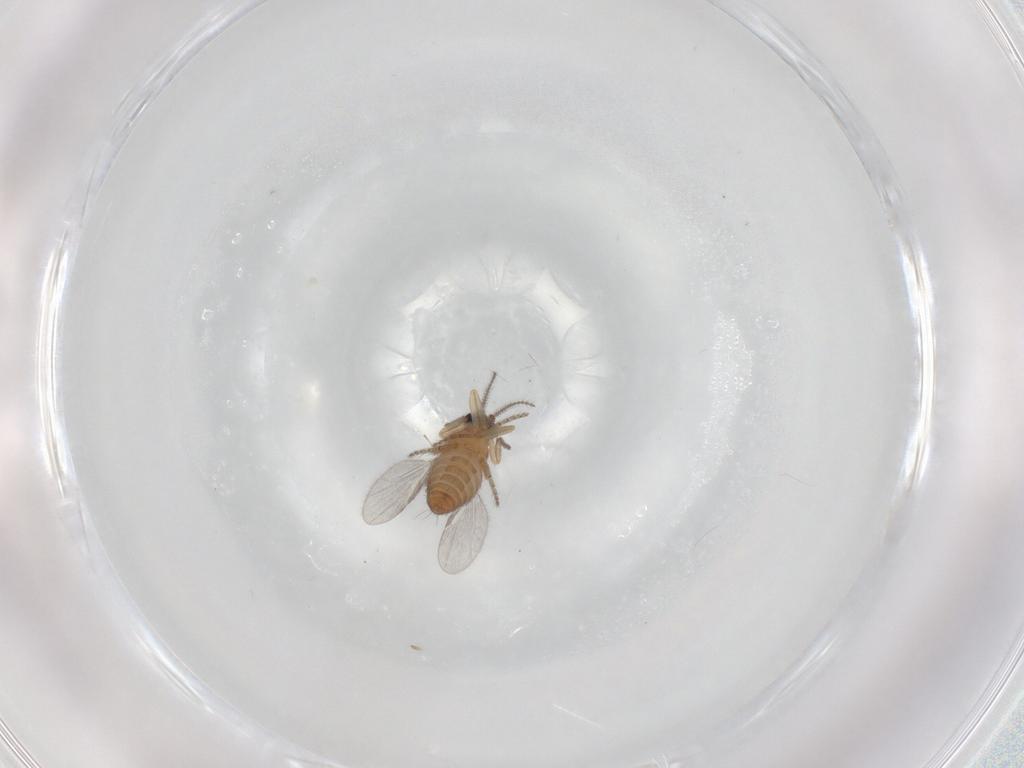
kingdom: Animalia
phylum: Arthropoda
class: Insecta
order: Diptera
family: Ceratopogonidae
